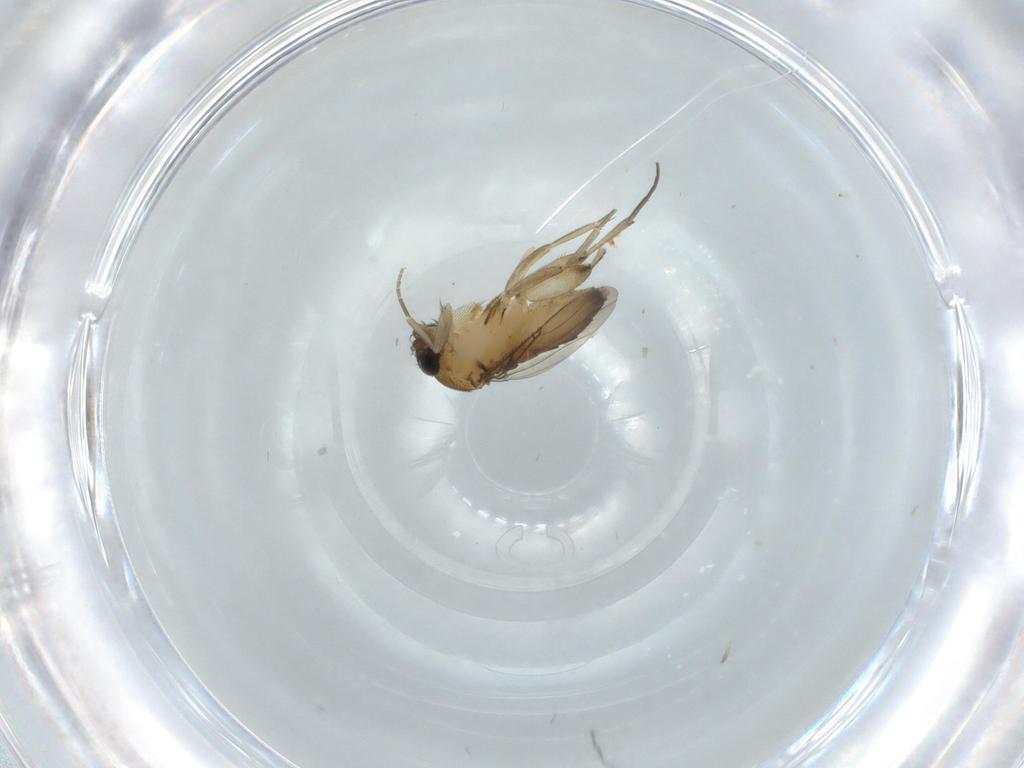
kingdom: Animalia
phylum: Arthropoda
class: Insecta
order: Diptera
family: Phoridae
